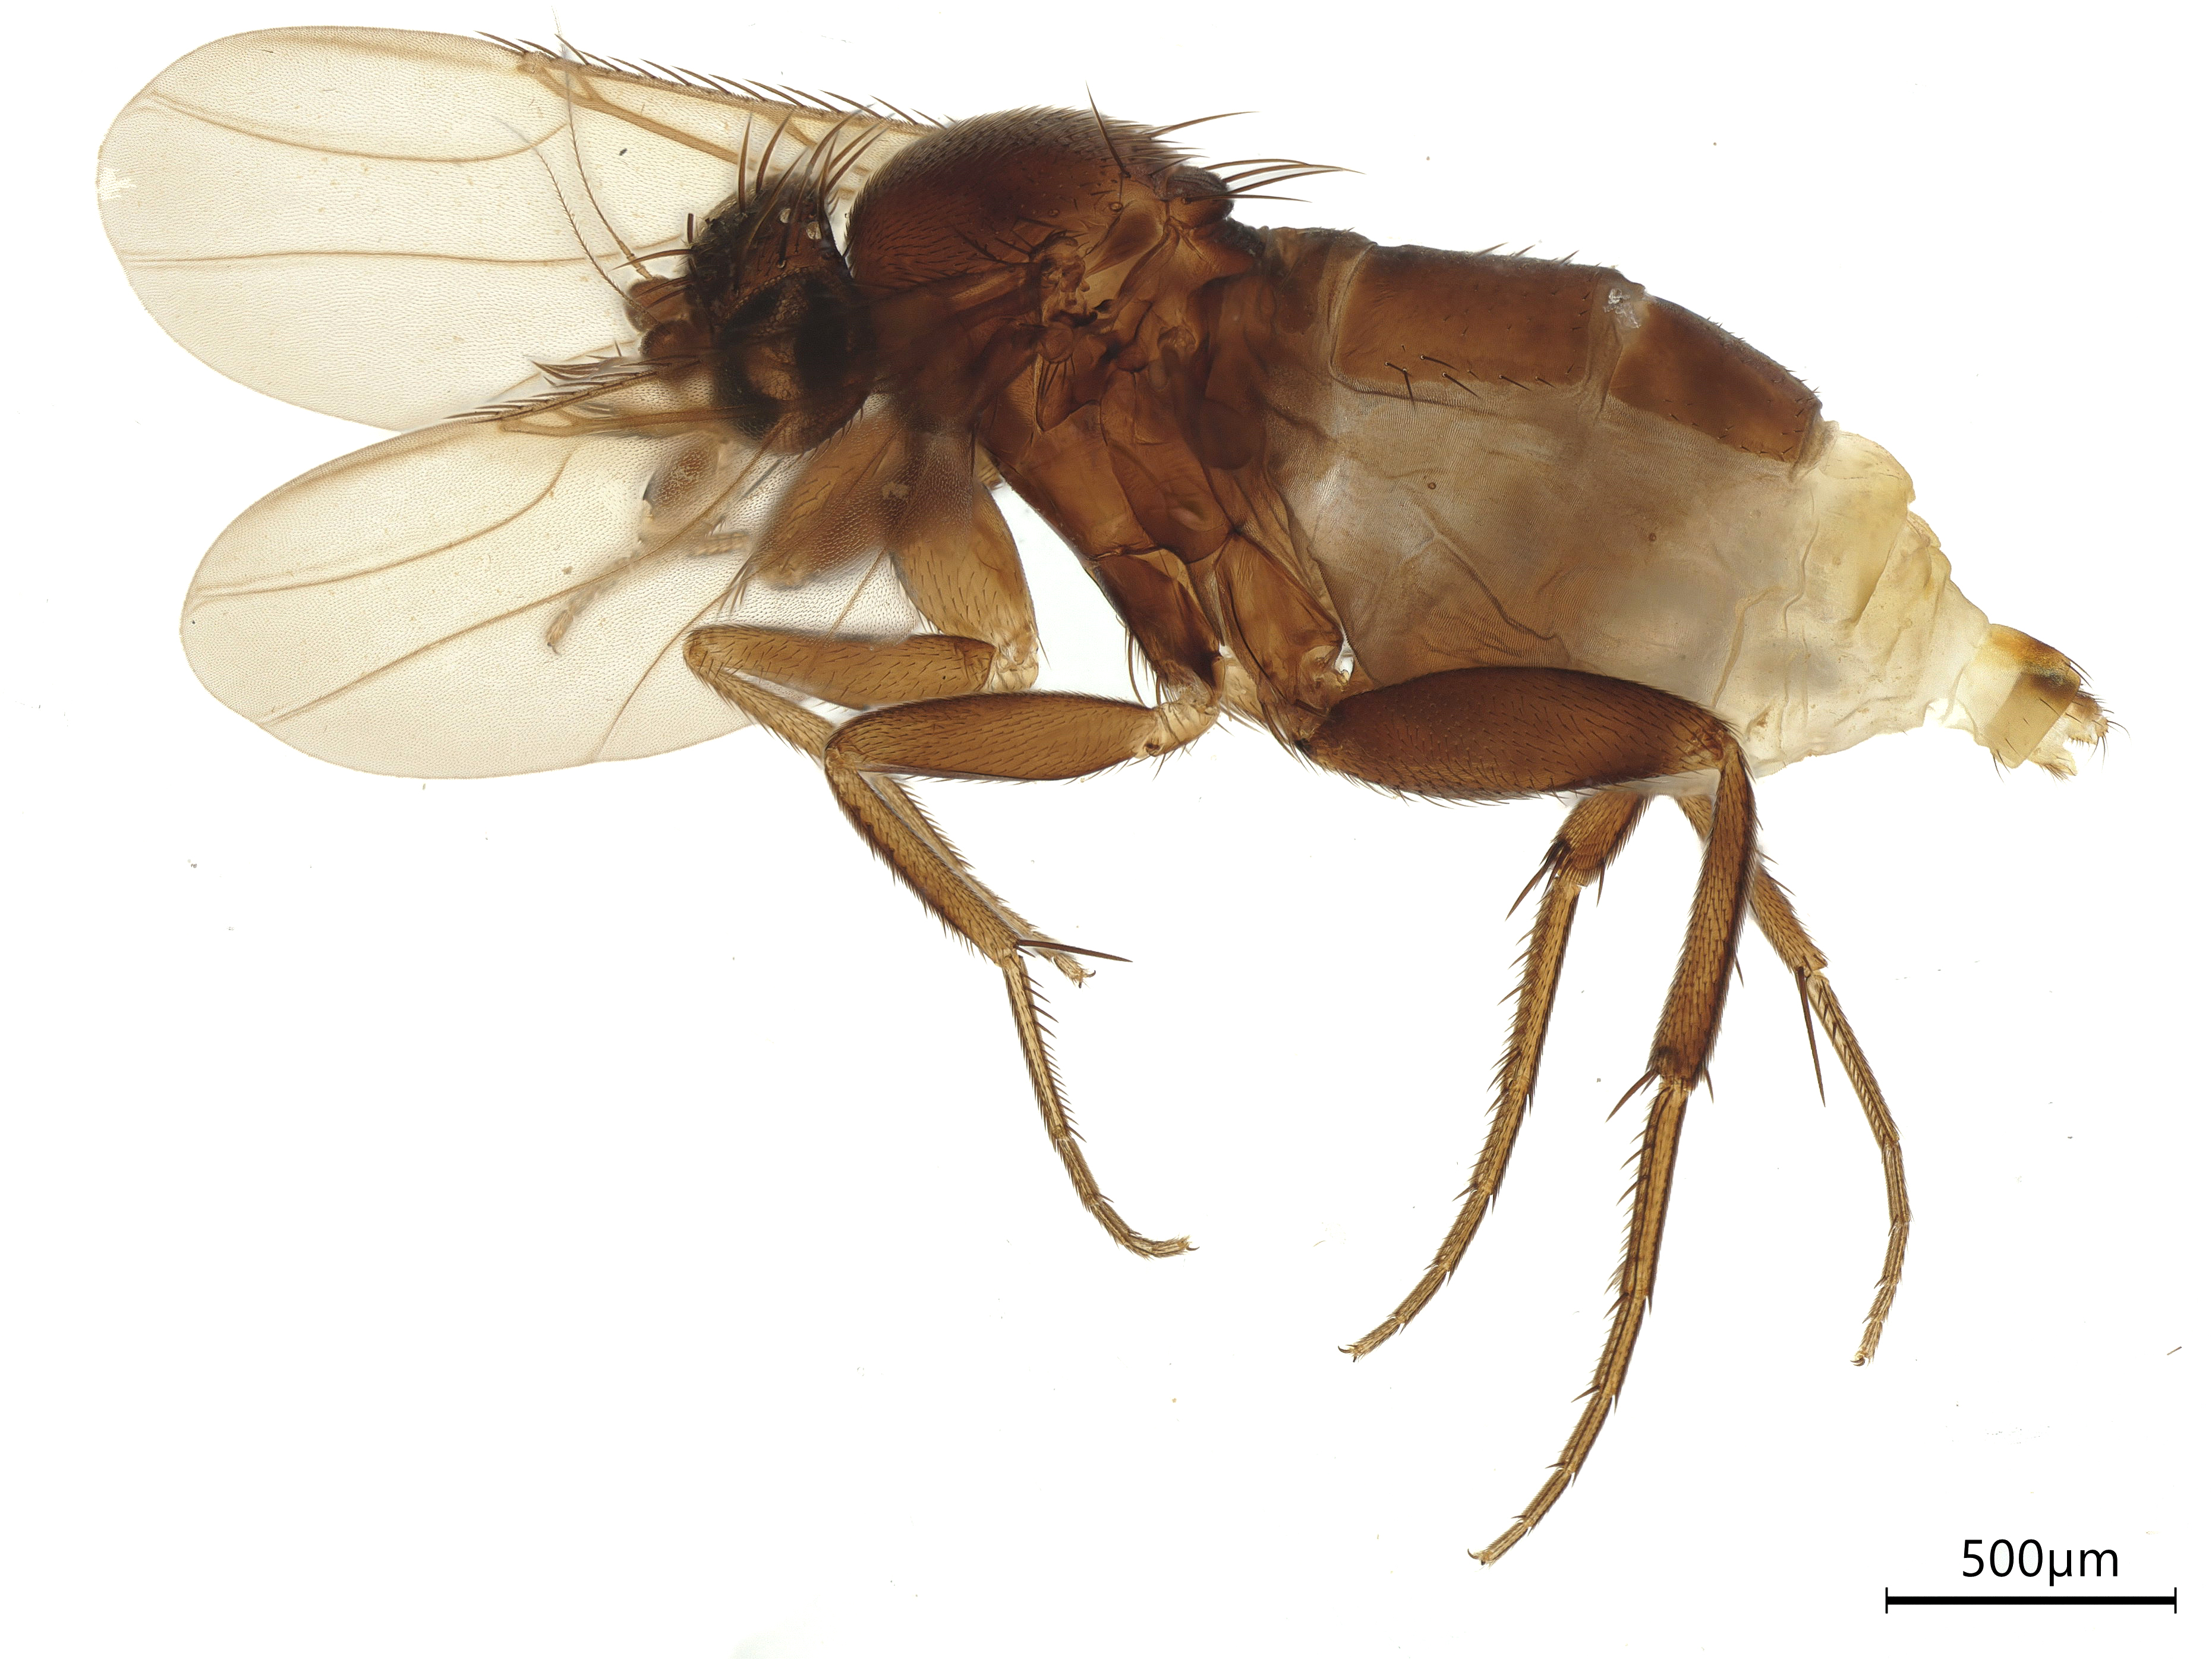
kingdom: Animalia
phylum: Arthropoda
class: Insecta
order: Diptera
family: Phoridae
